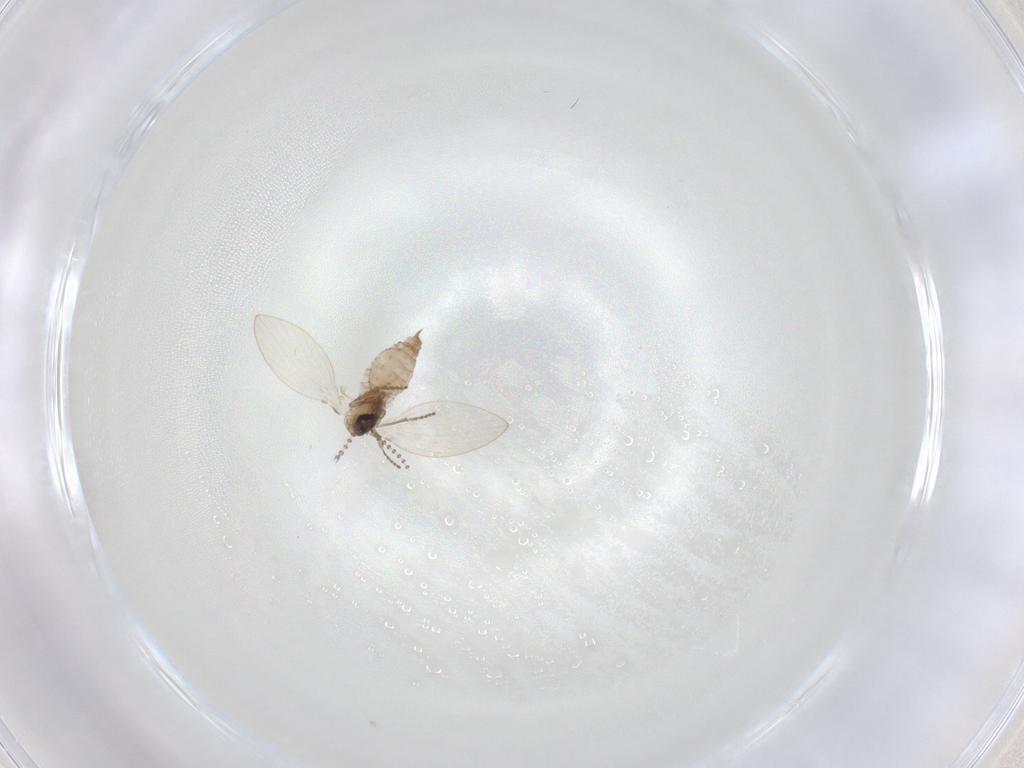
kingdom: Animalia
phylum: Arthropoda
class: Insecta
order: Diptera
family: Psychodidae
